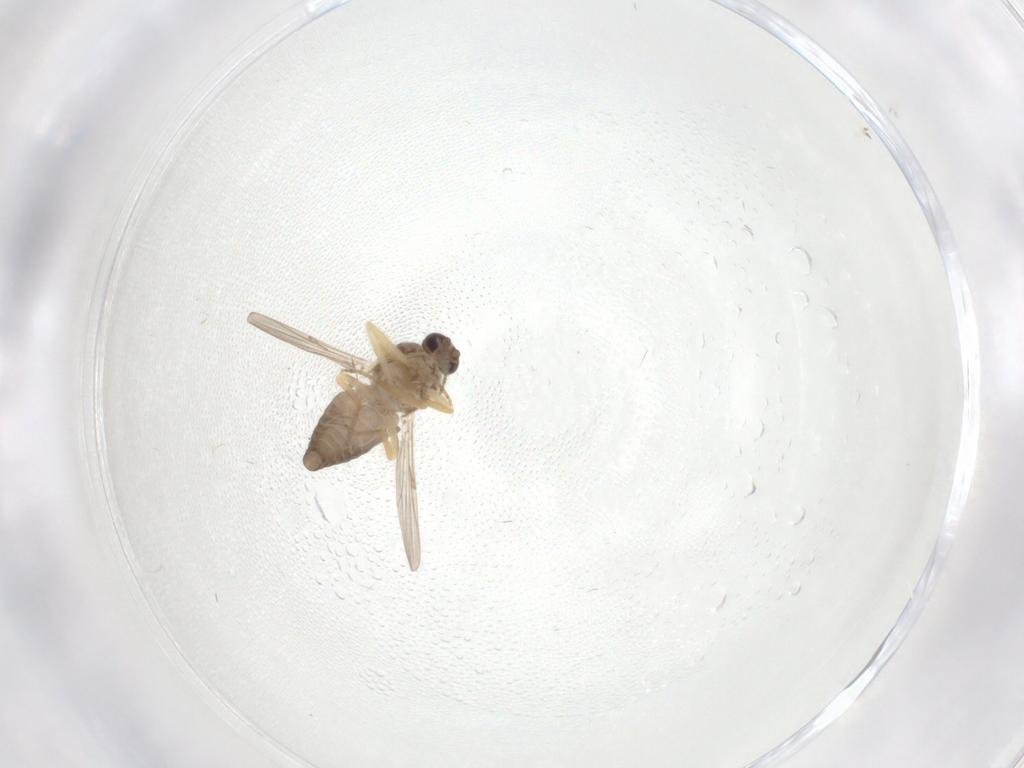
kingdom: Animalia
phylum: Arthropoda
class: Insecta
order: Diptera
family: Ceratopogonidae
